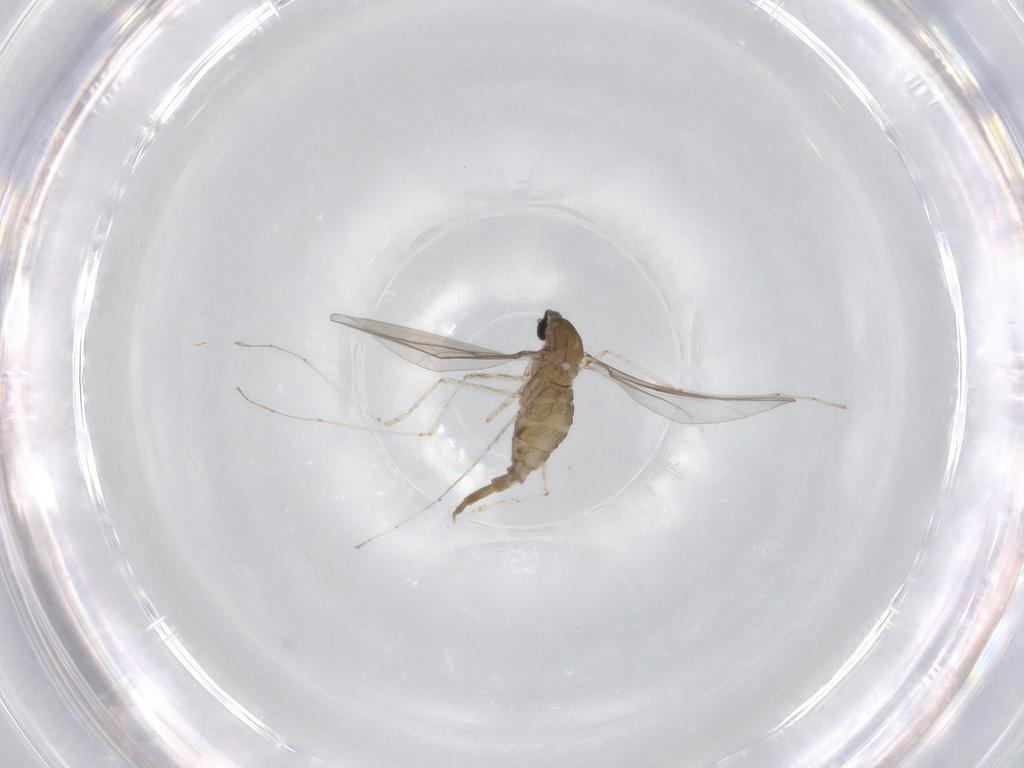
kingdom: Animalia
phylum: Arthropoda
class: Insecta
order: Diptera
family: Cecidomyiidae
